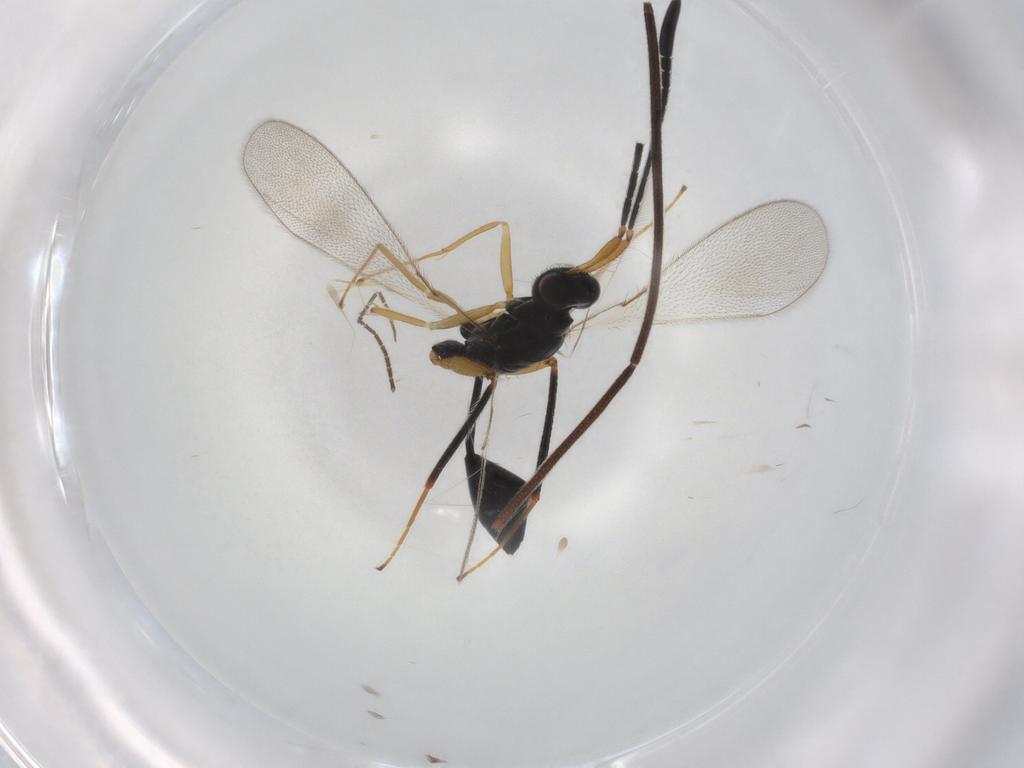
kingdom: Animalia
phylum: Arthropoda
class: Insecta
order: Hymenoptera
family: Mymaridae
